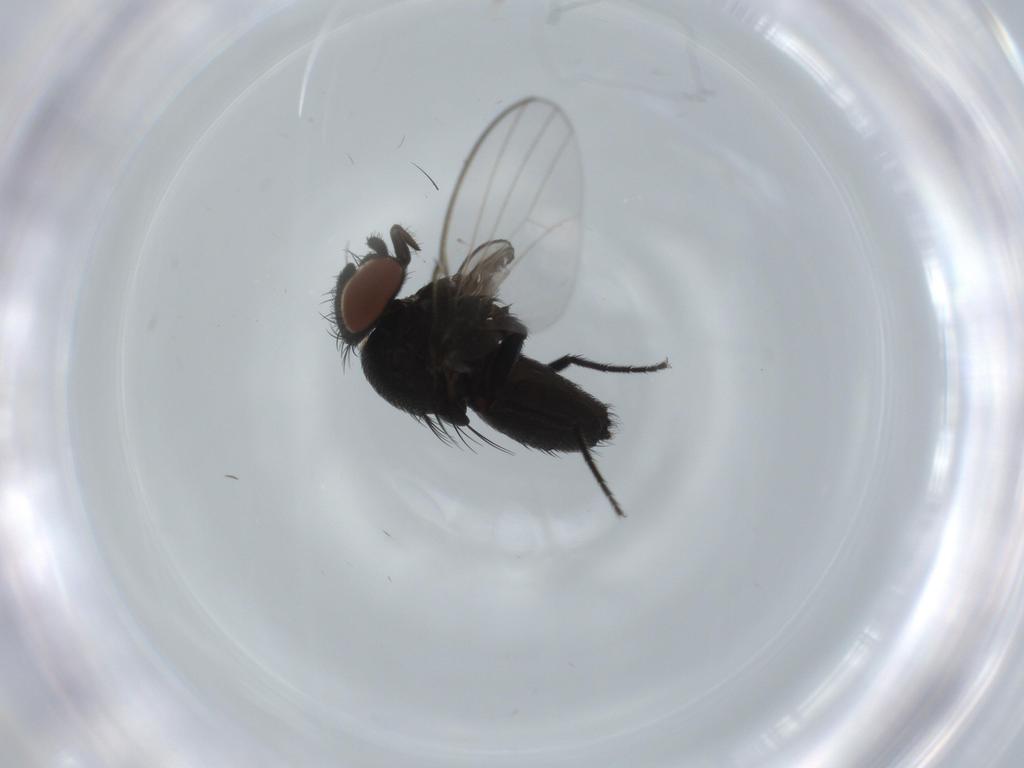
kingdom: Animalia
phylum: Arthropoda
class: Insecta
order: Diptera
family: Milichiidae
